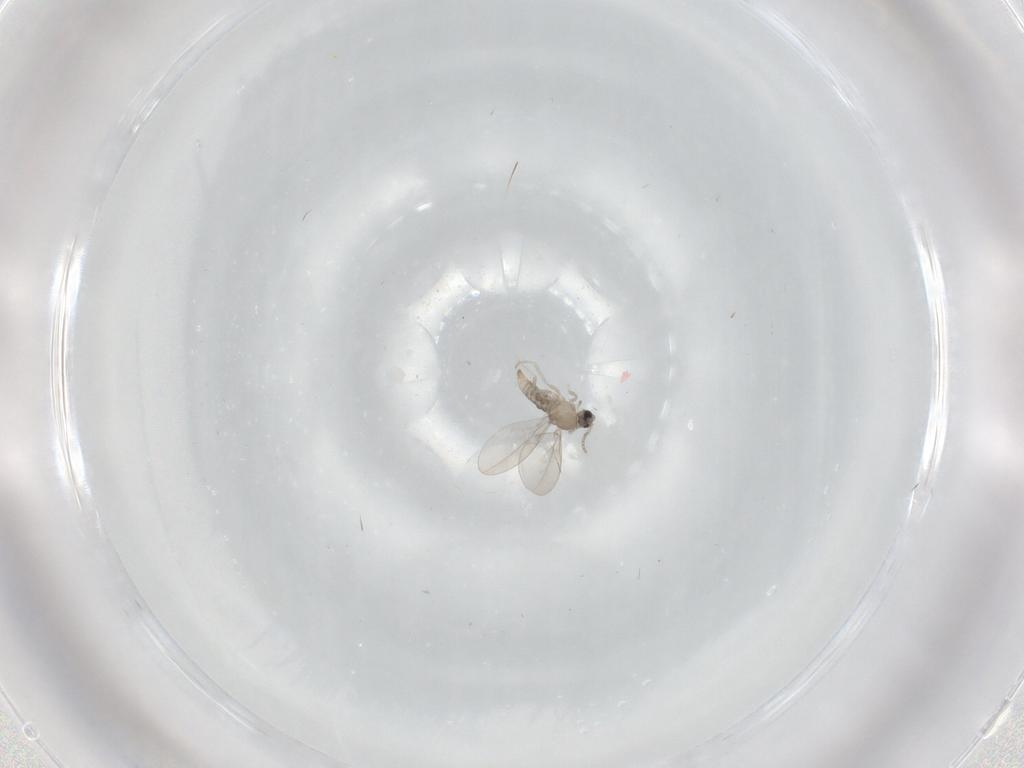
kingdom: Animalia
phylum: Arthropoda
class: Insecta
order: Diptera
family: Cecidomyiidae
